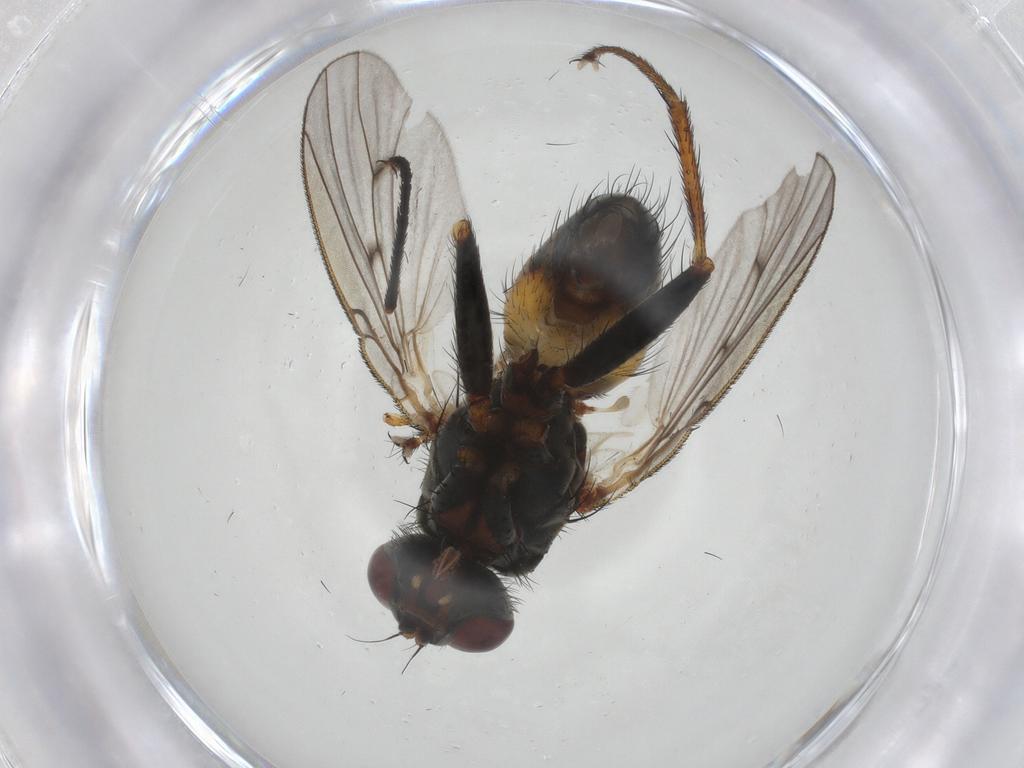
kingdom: Animalia
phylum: Arthropoda
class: Insecta
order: Diptera
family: Muscidae
